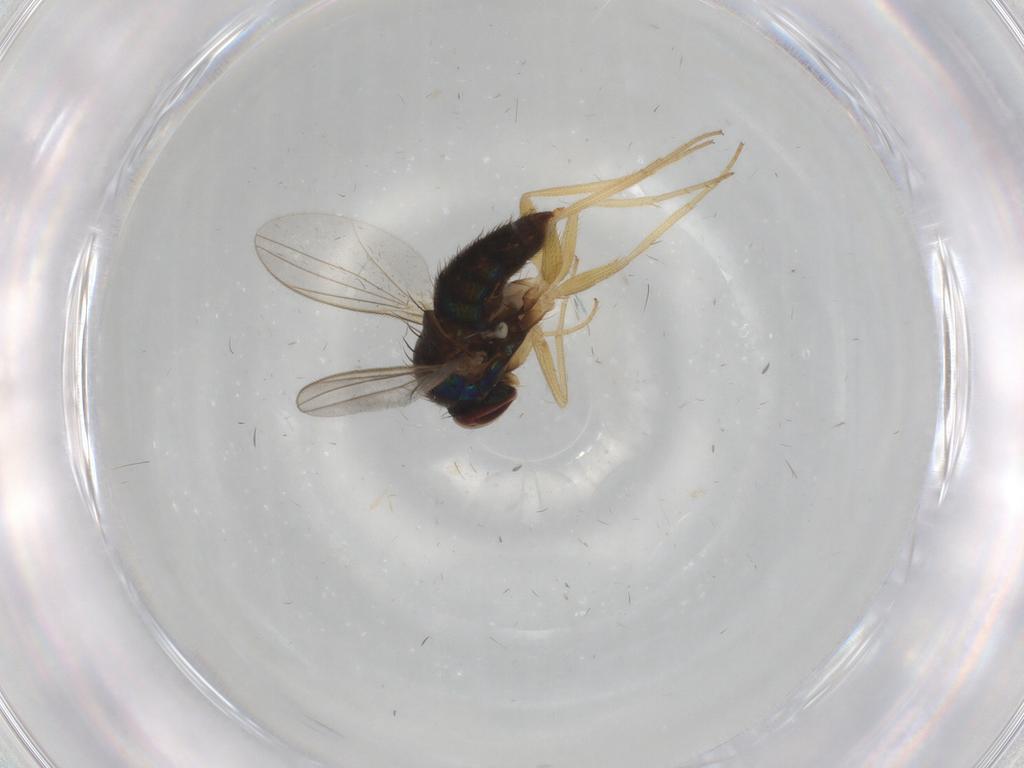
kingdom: Animalia
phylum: Arthropoda
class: Insecta
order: Diptera
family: Dolichopodidae
